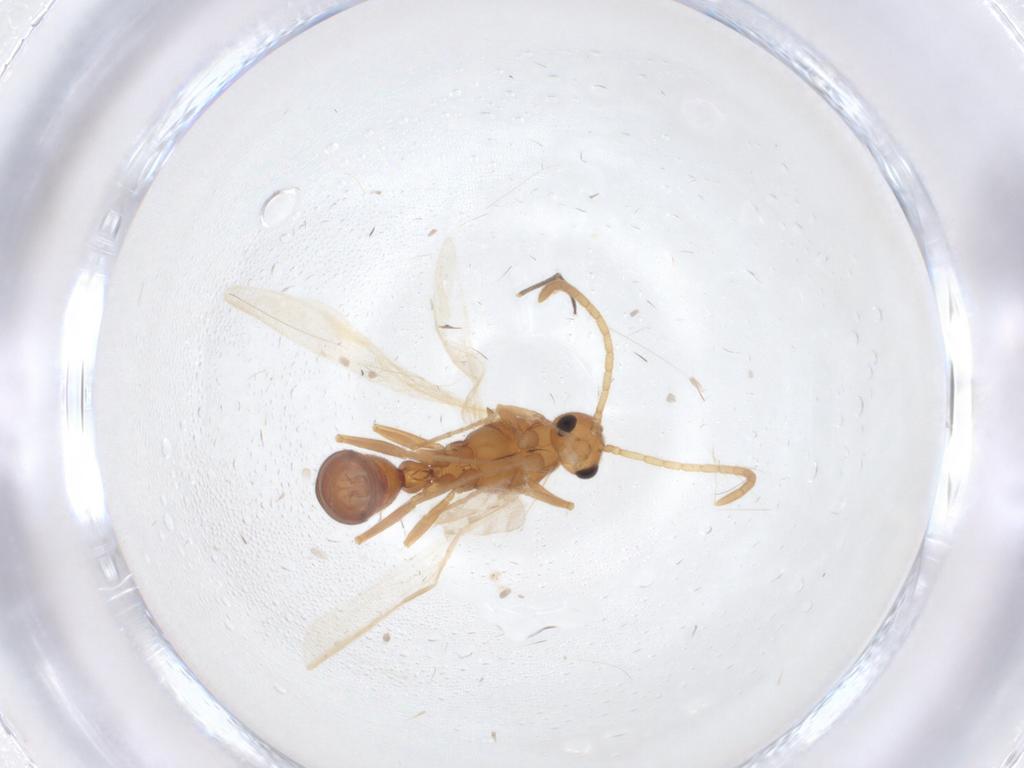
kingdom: Animalia
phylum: Arthropoda
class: Insecta
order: Hymenoptera
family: Formicidae
